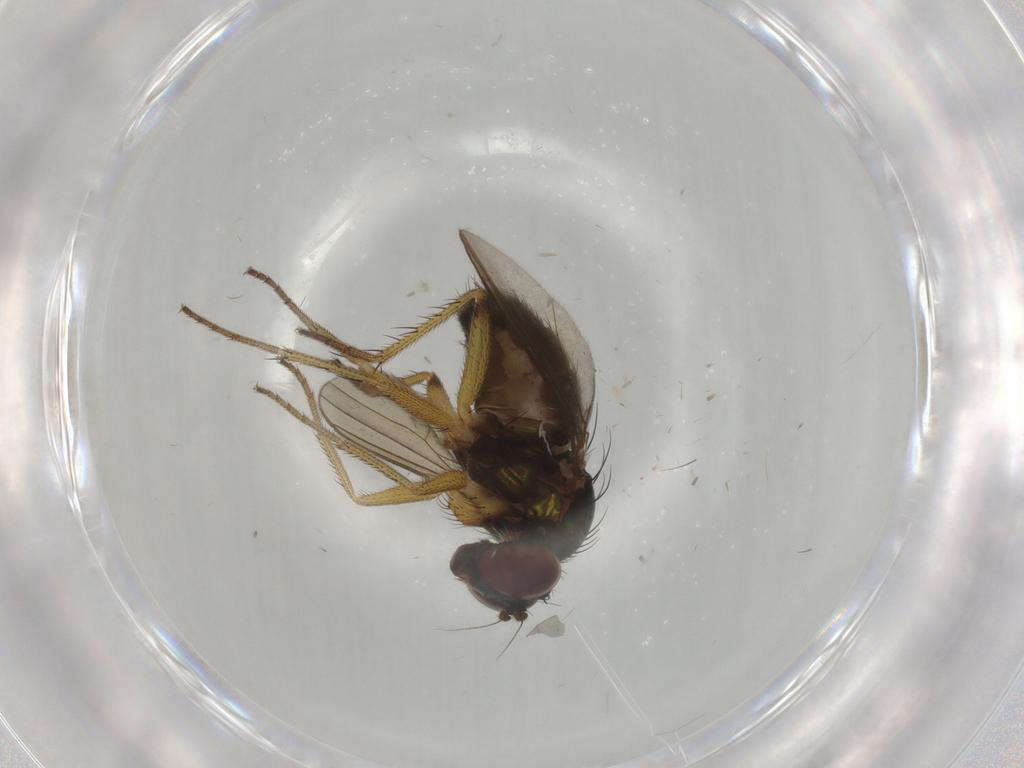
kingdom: Animalia
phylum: Arthropoda
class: Insecta
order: Diptera
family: Dolichopodidae
